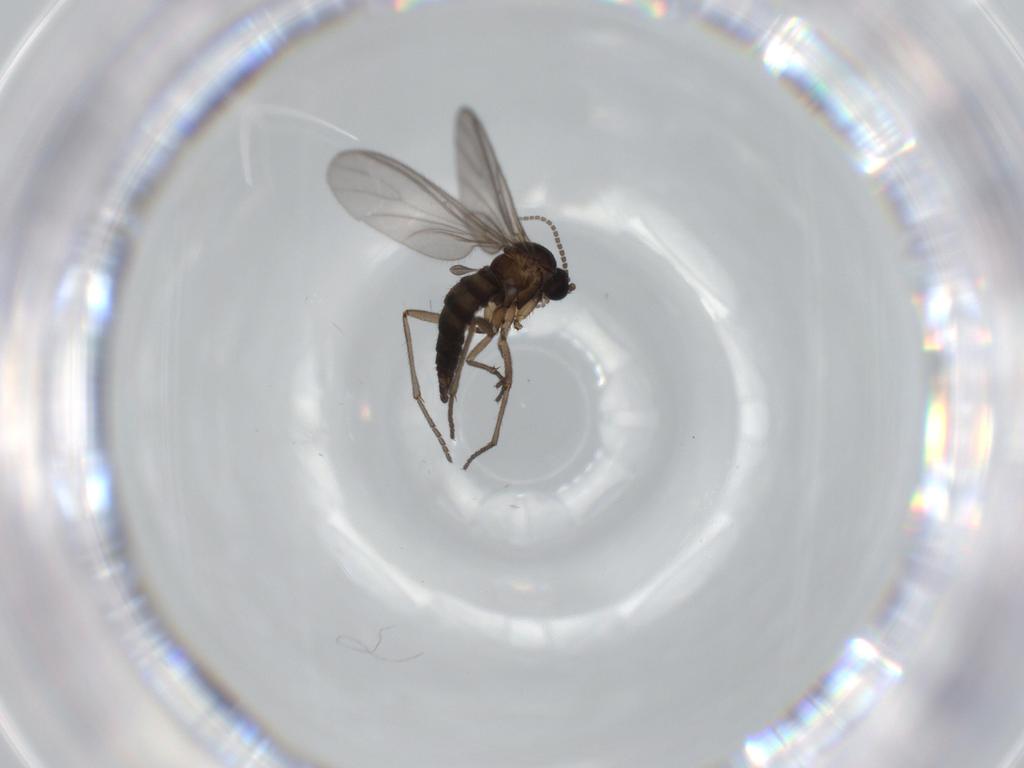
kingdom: Animalia
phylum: Arthropoda
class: Insecta
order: Diptera
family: Sciaridae
